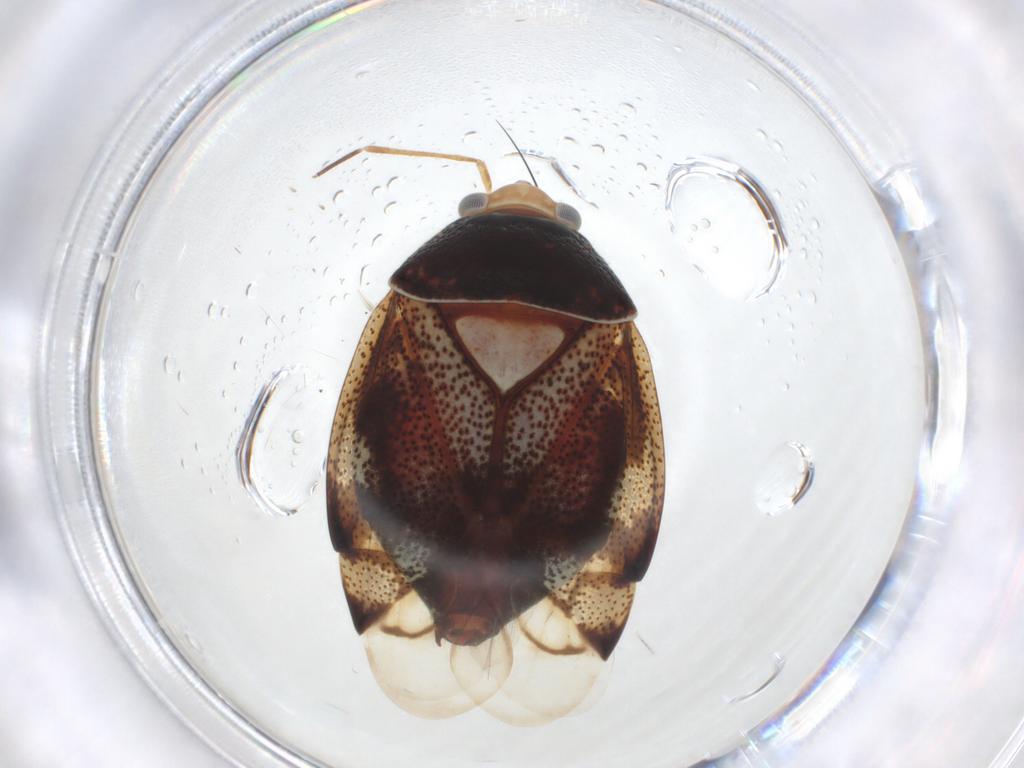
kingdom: Animalia
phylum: Arthropoda
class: Insecta
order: Hemiptera
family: Miridae
